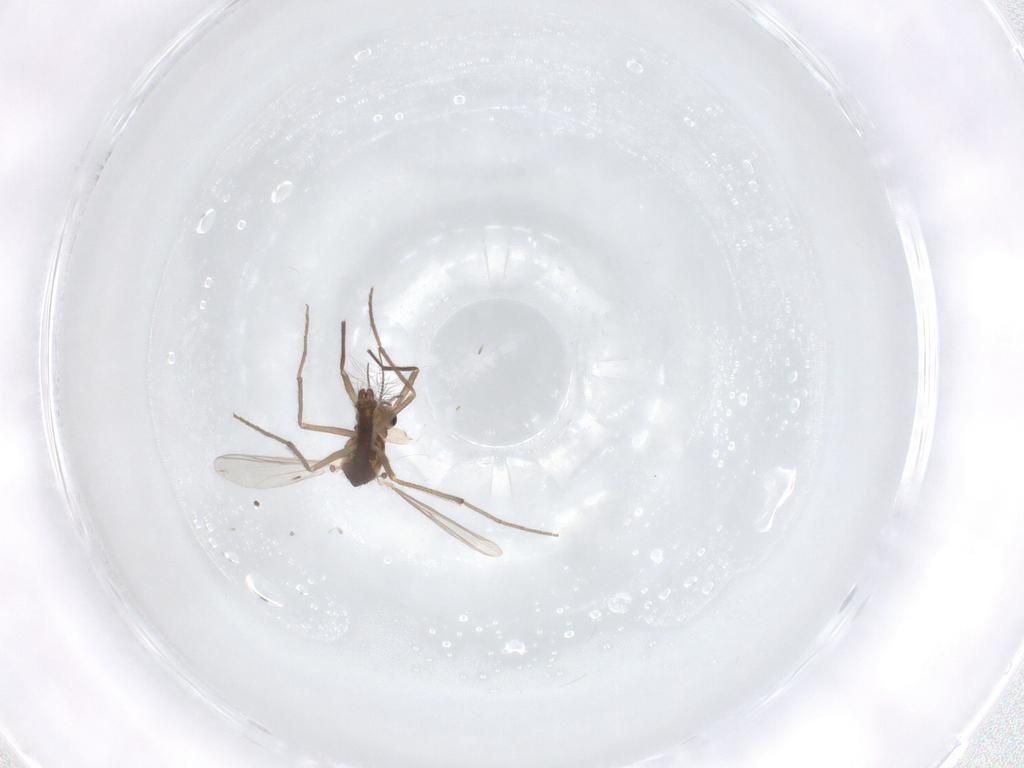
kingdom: Animalia
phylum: Arthropoda
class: Insecta
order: Diptera
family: Chironomidae
